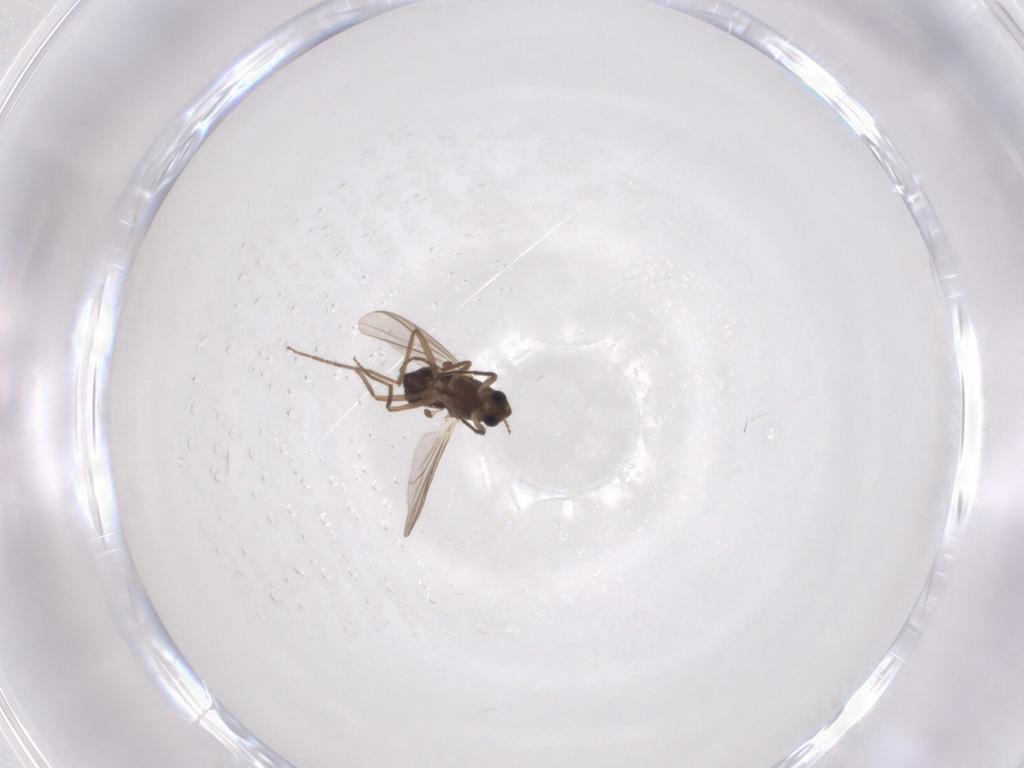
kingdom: Animalia
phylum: Arthropoda
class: Insecta
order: Diptera
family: Chironomidae
